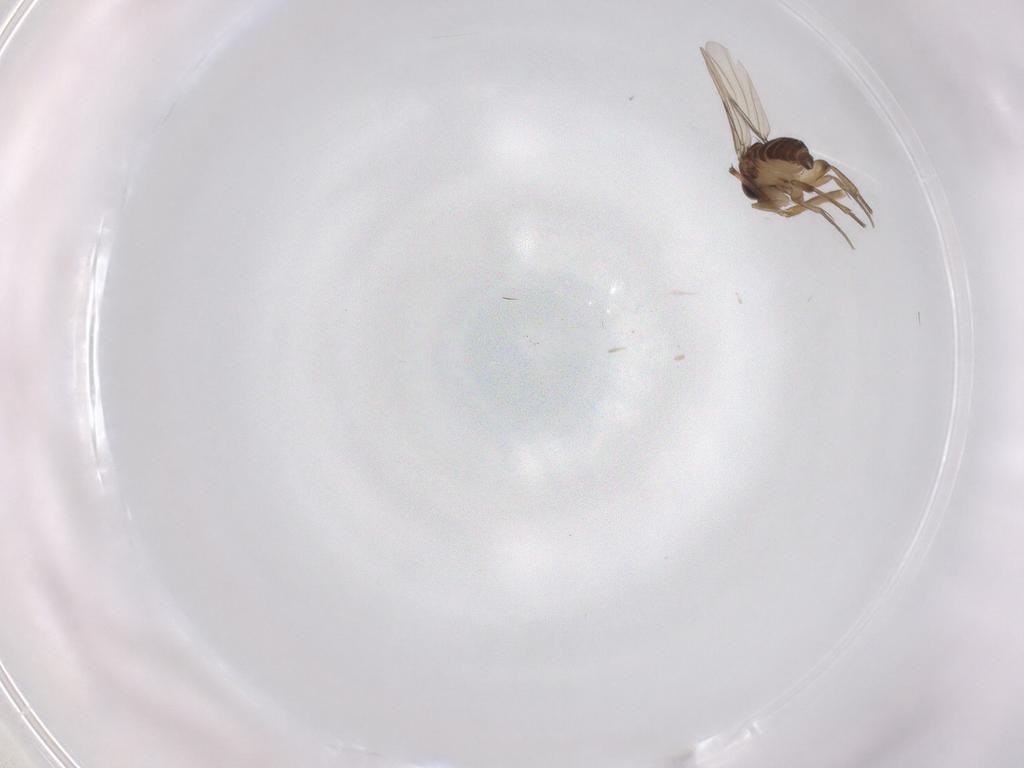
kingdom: Animalia
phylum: Arthropoda
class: Insecta
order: Diptera
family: Phoridae
